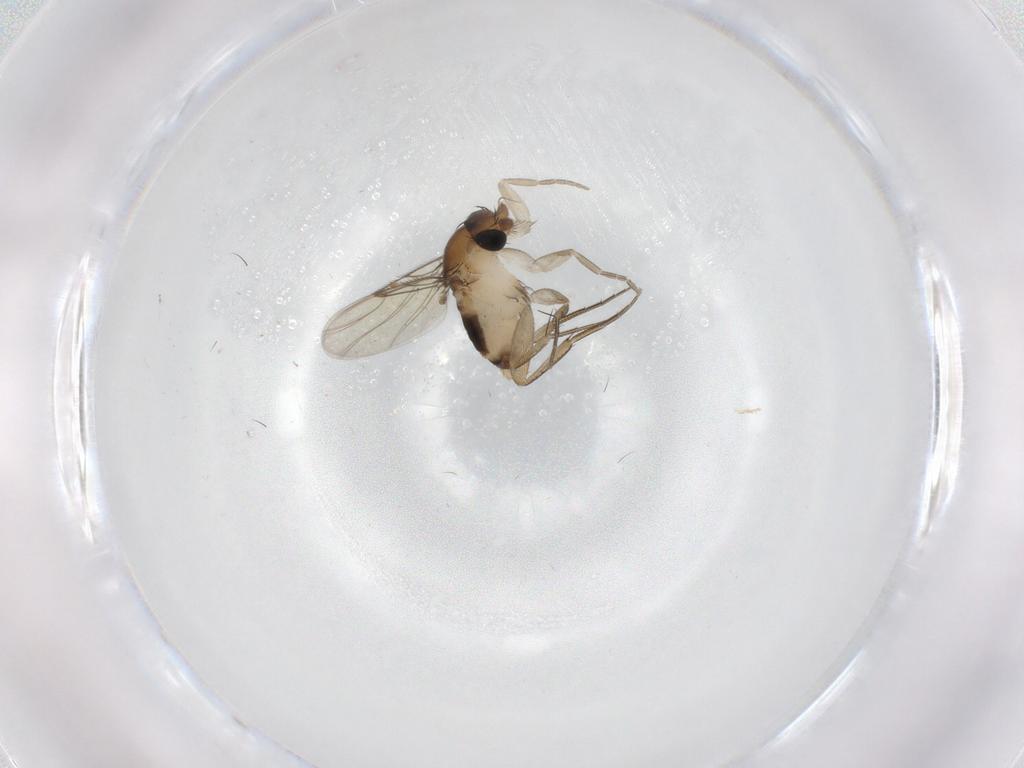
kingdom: Animalia
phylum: Arthropoda
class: Insecta
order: Diptera
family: Phoridae
